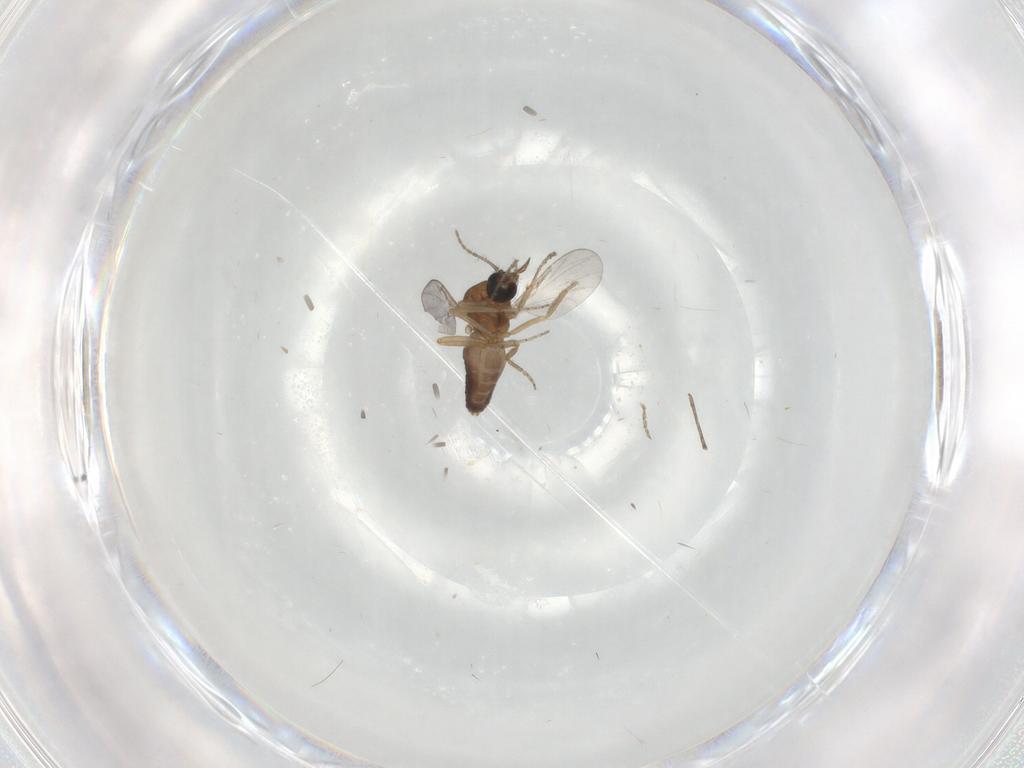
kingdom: Animalia
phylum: Arthropoda
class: Insecta
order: Diptera
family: Ceratopogonidae
